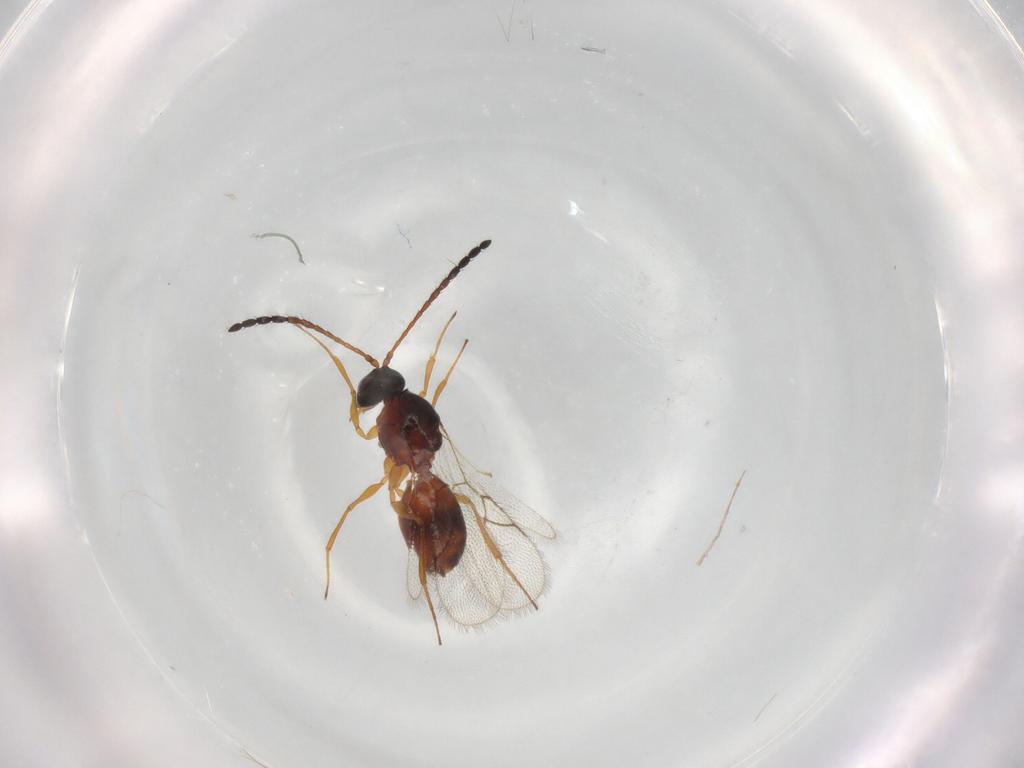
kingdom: Animalia
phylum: Arthropoda
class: Insecta
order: Hymenoptera
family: Figitidae
